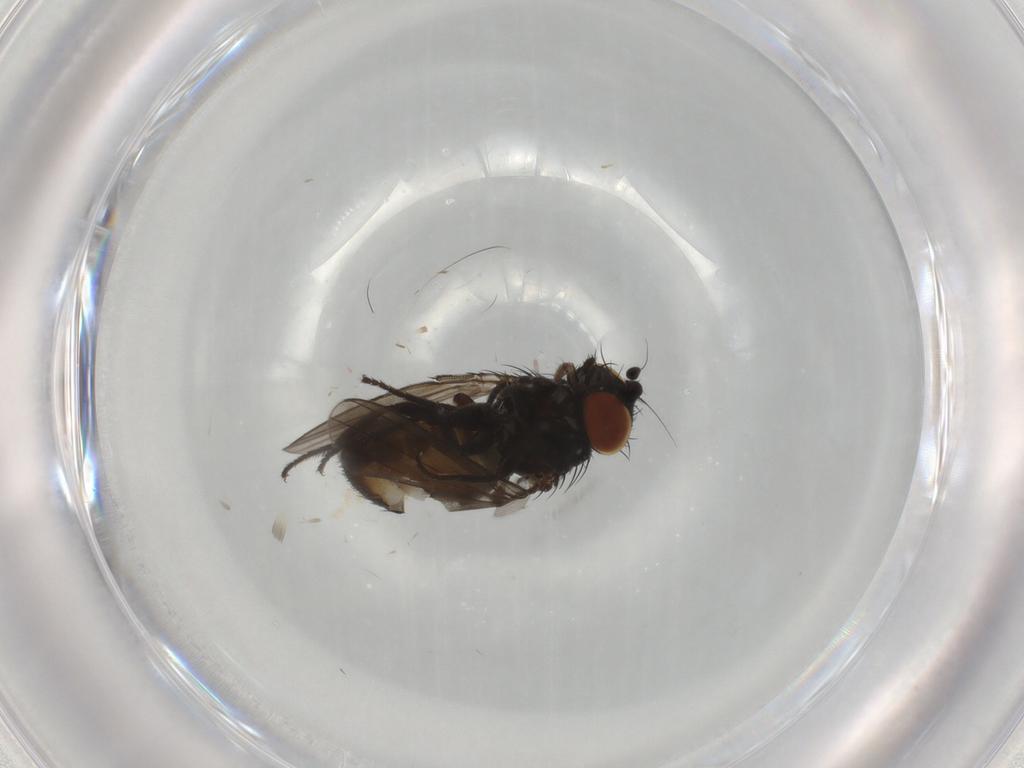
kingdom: Animalia
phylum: Arthropoda
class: Insecta
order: Diptera
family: Milichiidae
